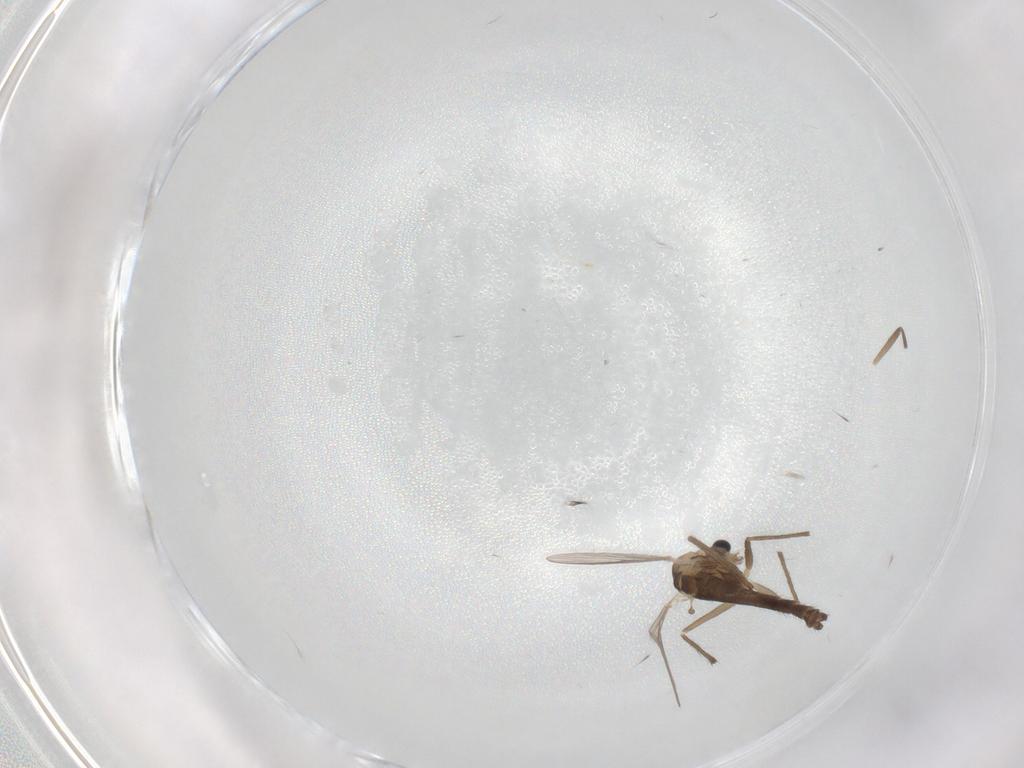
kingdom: Animalia
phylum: Arthropoda
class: Insecta
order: Diptera
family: Chironomidae
